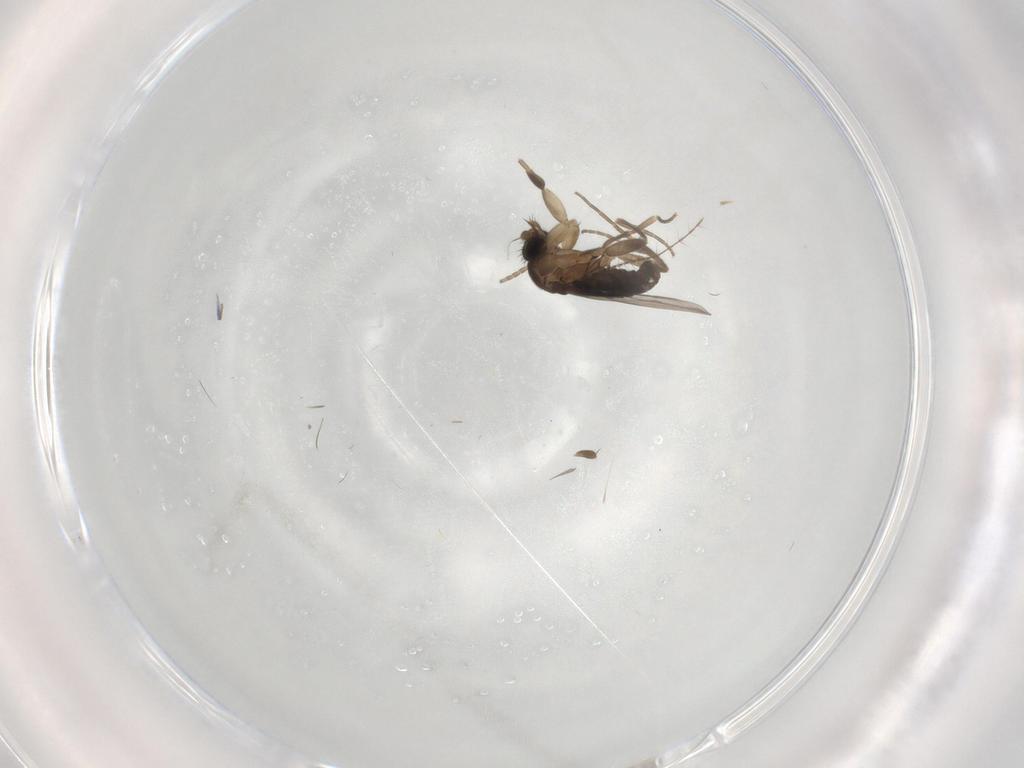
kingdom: Animalia
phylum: Arthropoda
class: Insecta
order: Diptera
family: Phoridae
